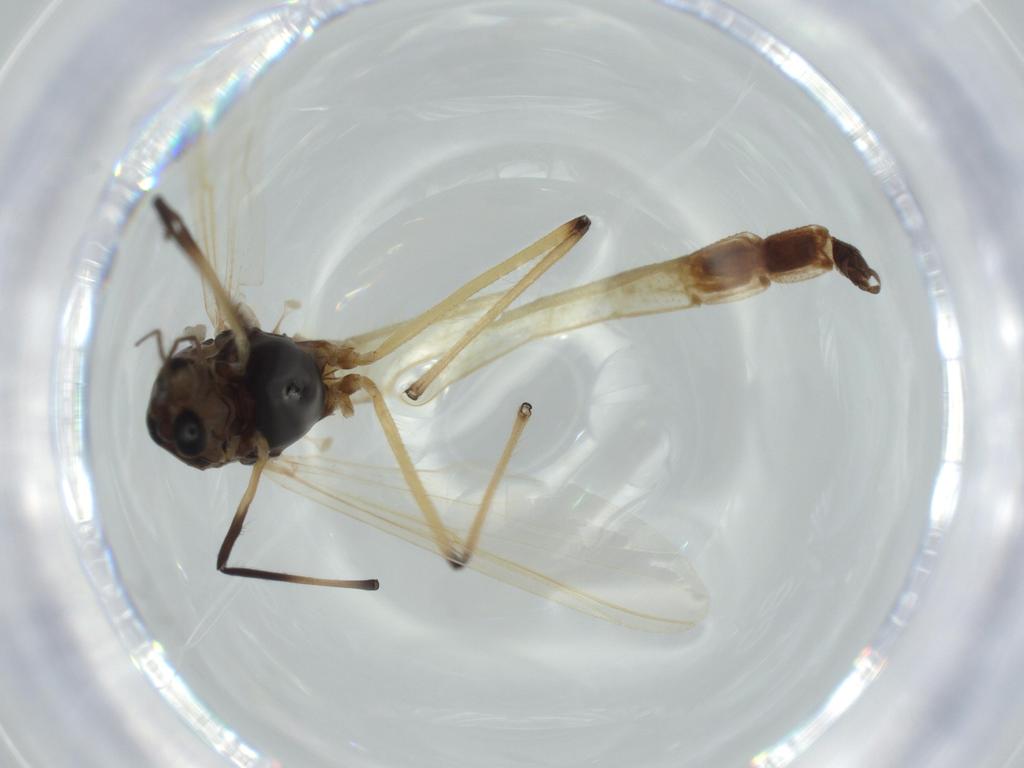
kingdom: Animalia
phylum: Arthropoda
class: Insecta
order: Diptera
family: Chironomidae
